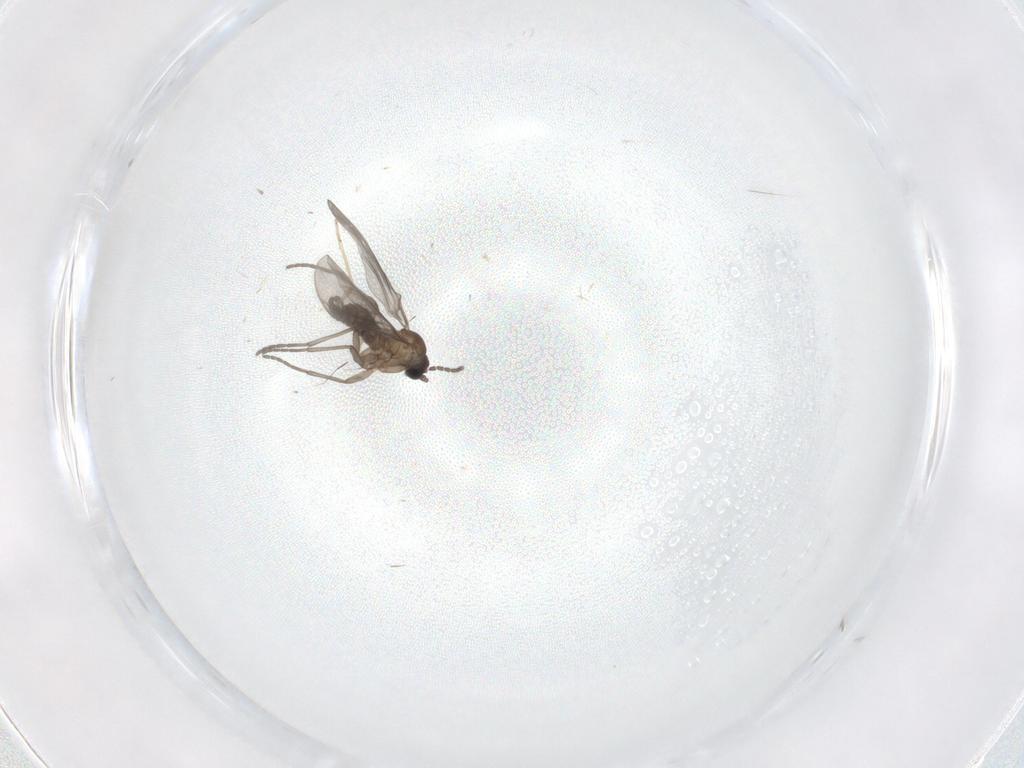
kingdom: Animalia
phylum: Arthropoda
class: Insecta
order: Diptera
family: Sciaridae
